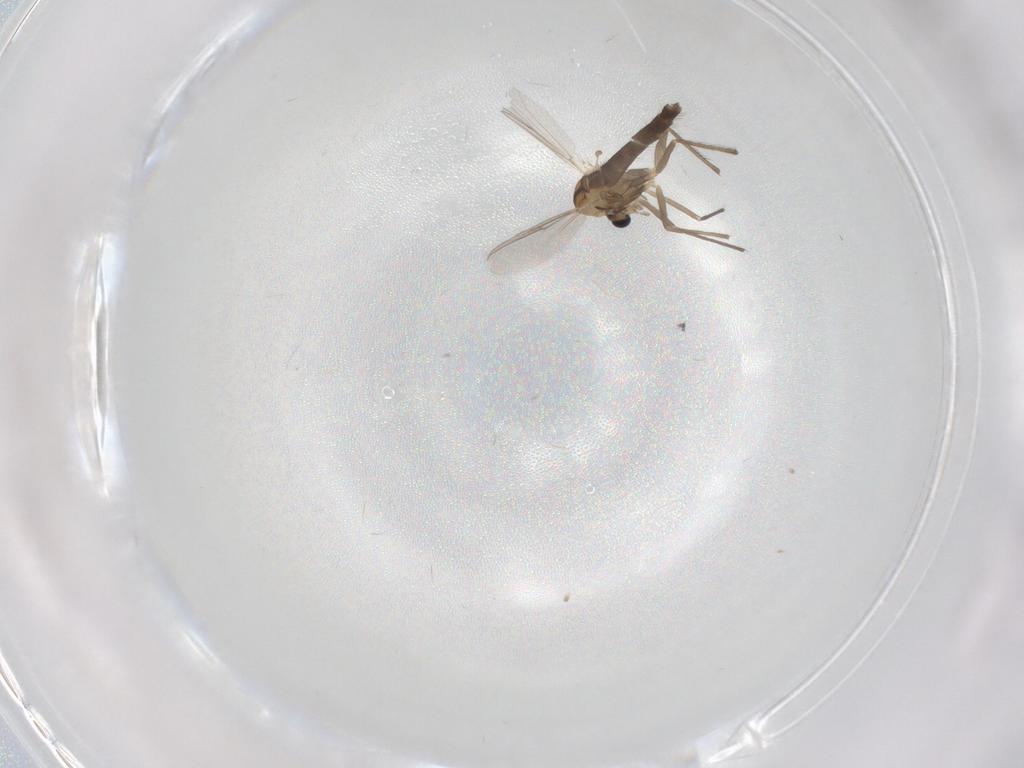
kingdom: Animalia
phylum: Arthropoda
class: Insecta
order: Diptera
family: Chironomidae
